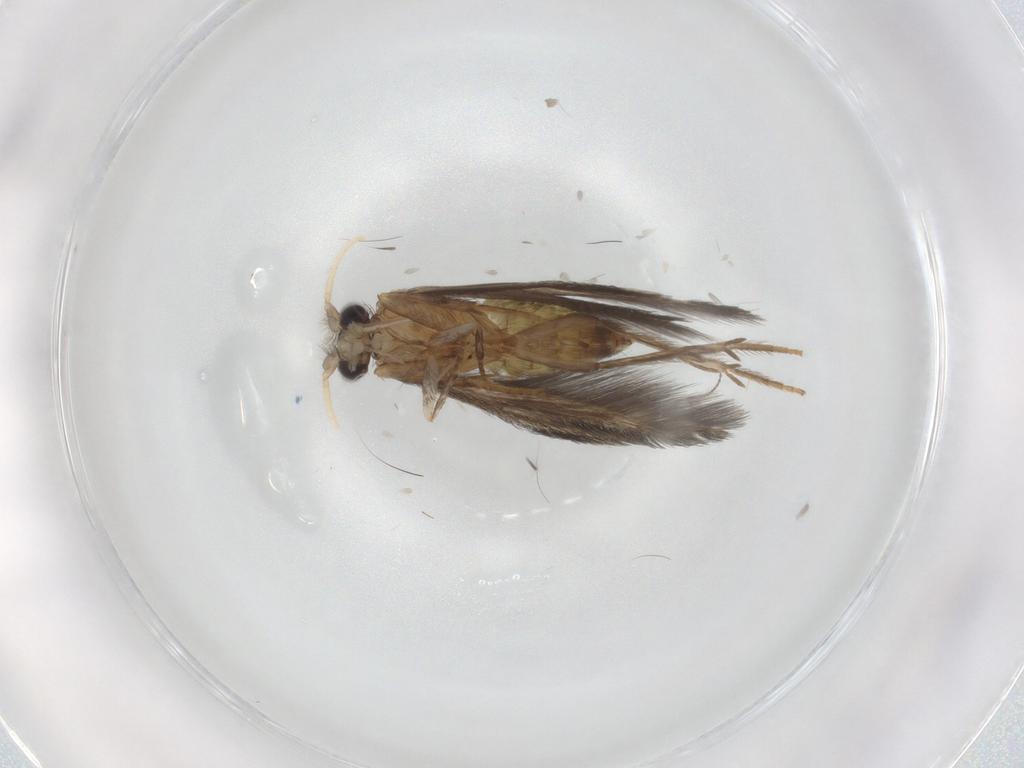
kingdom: Animalia
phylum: Arthropoda
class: Insecta
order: Trichoptera
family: Hydroptilidae
